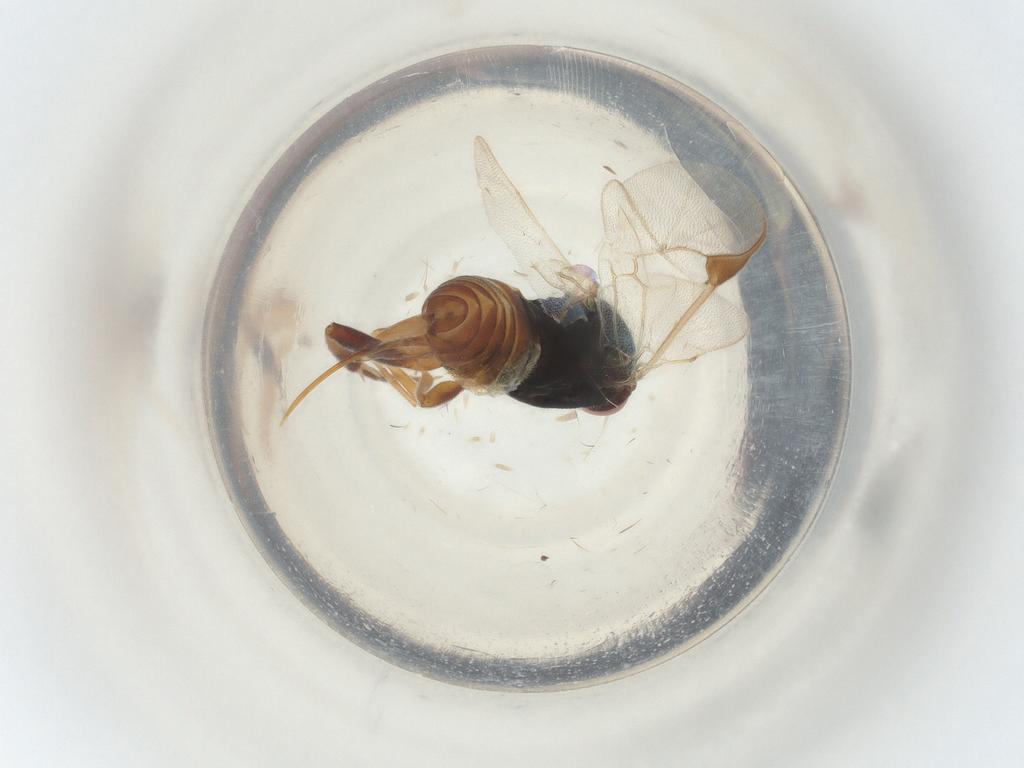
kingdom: Animalia
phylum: Arthropoda
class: Insecta
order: Hymenoptera
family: Braconidae
